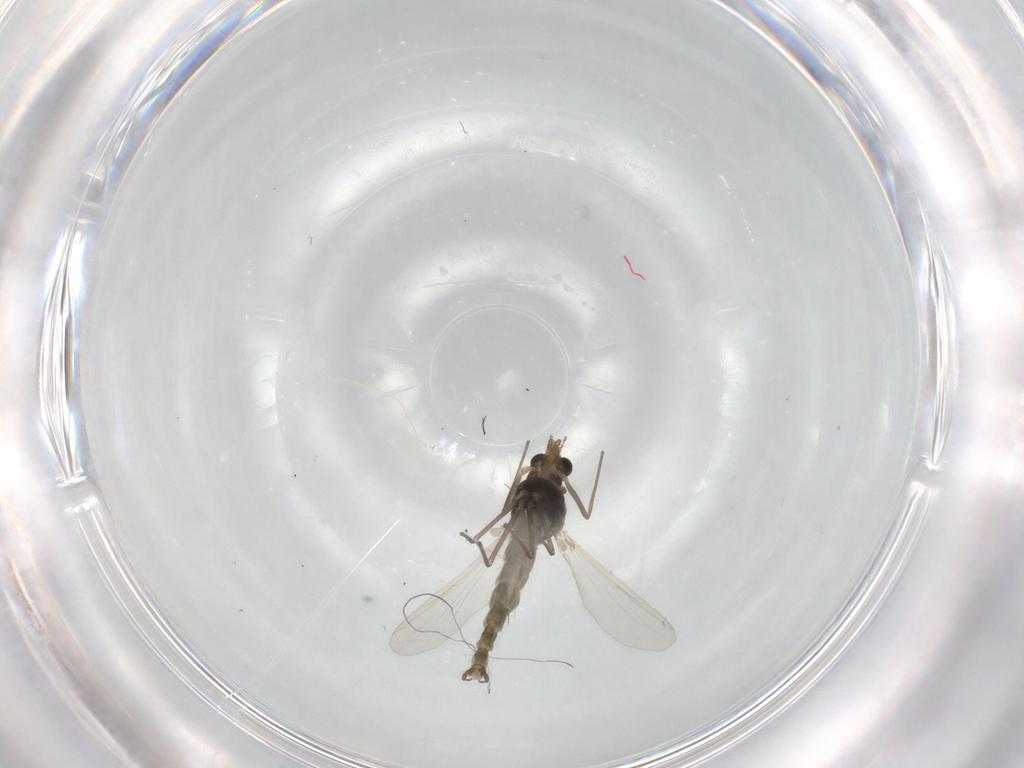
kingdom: Animalia
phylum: Arthropoda
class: Insecta
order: Diptera
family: Chironomidae
